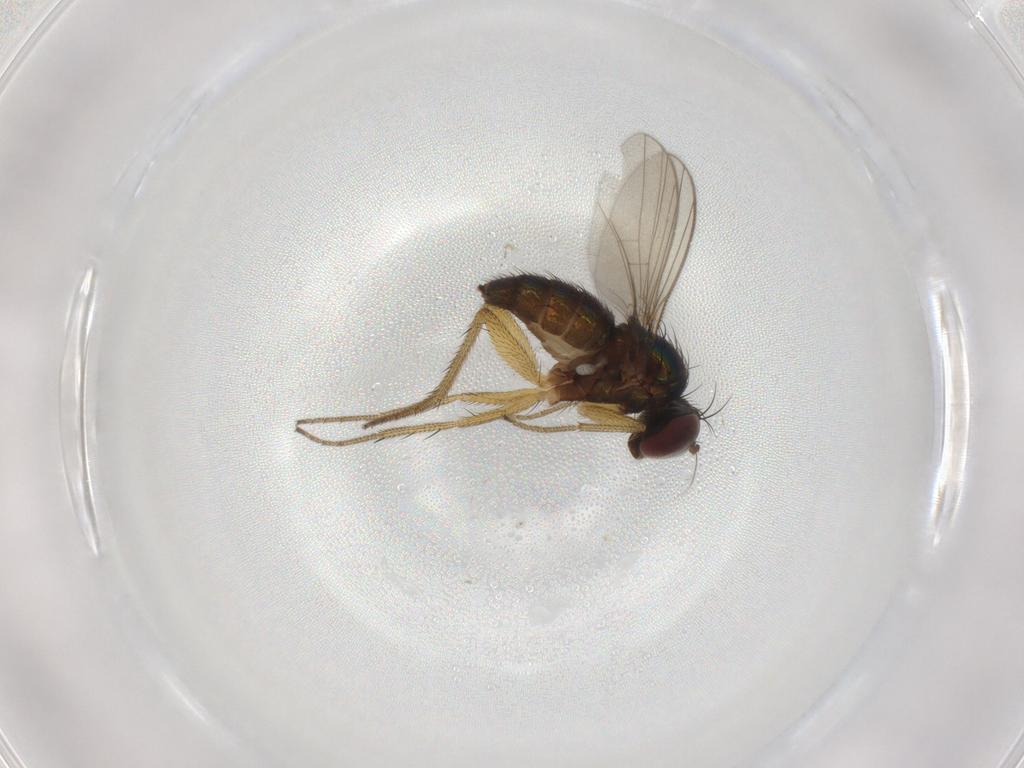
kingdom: Animalia
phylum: Arthropoda
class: Insecta
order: Diptera
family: Dolichopodidae
